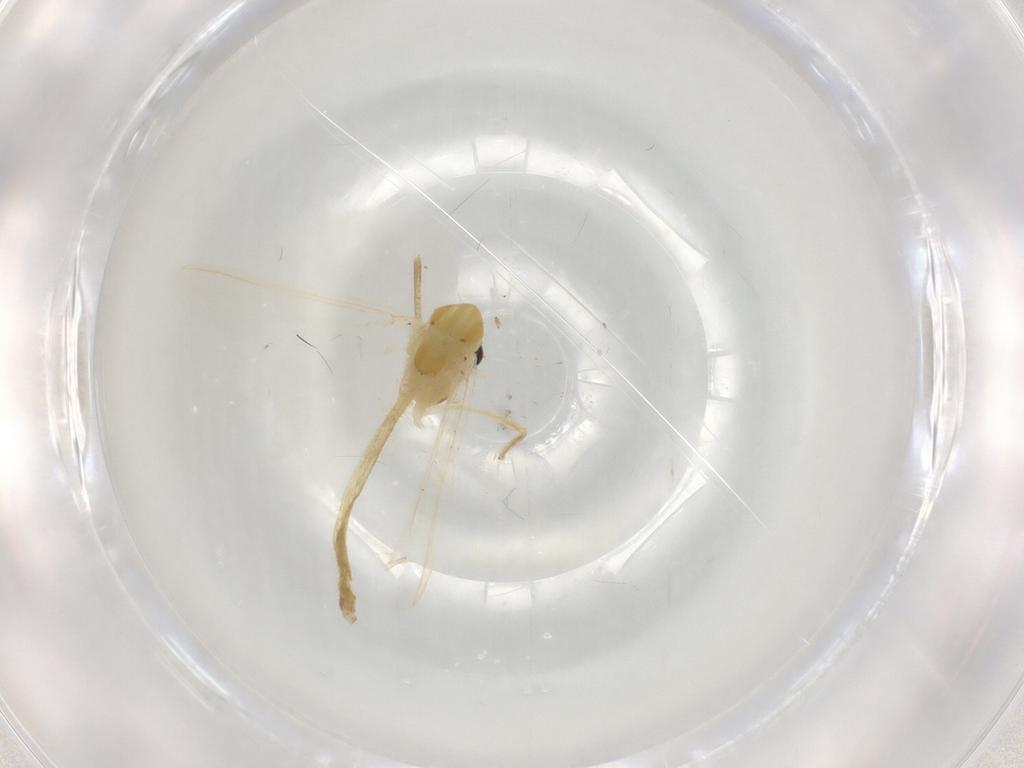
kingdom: Animalia
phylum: Arthropoda
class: Insecta
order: Diptera
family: Chironomidae
